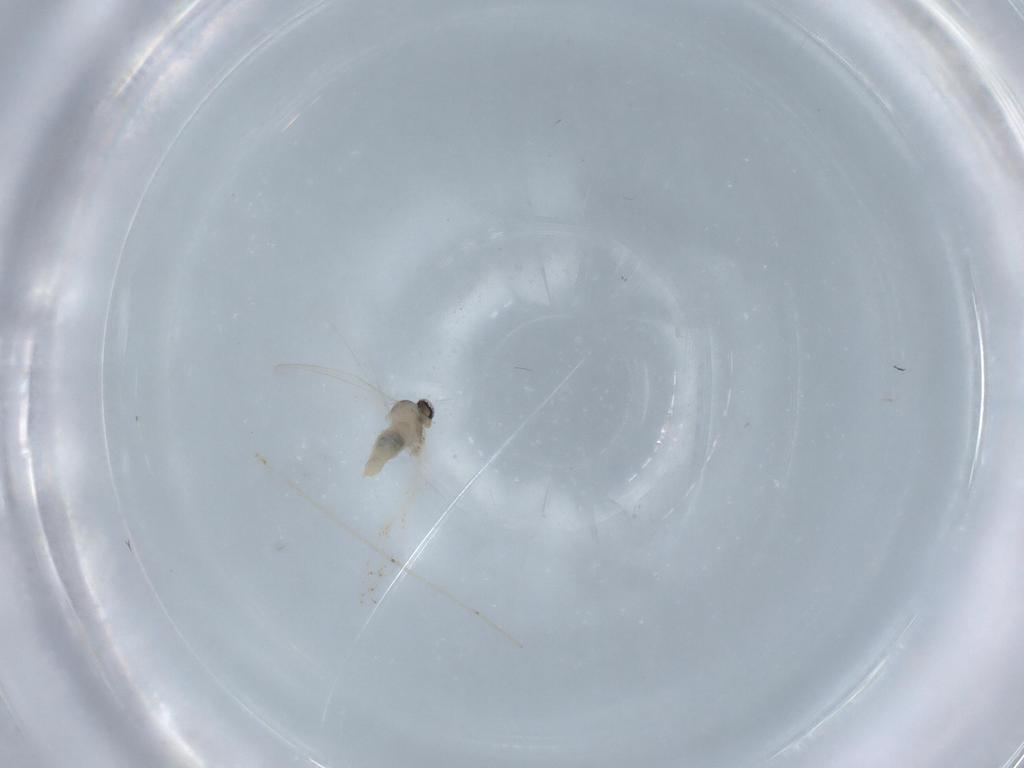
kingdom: Animalia
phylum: Arthropoda
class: Insecta
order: Diptera
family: Cecidomyiidae
